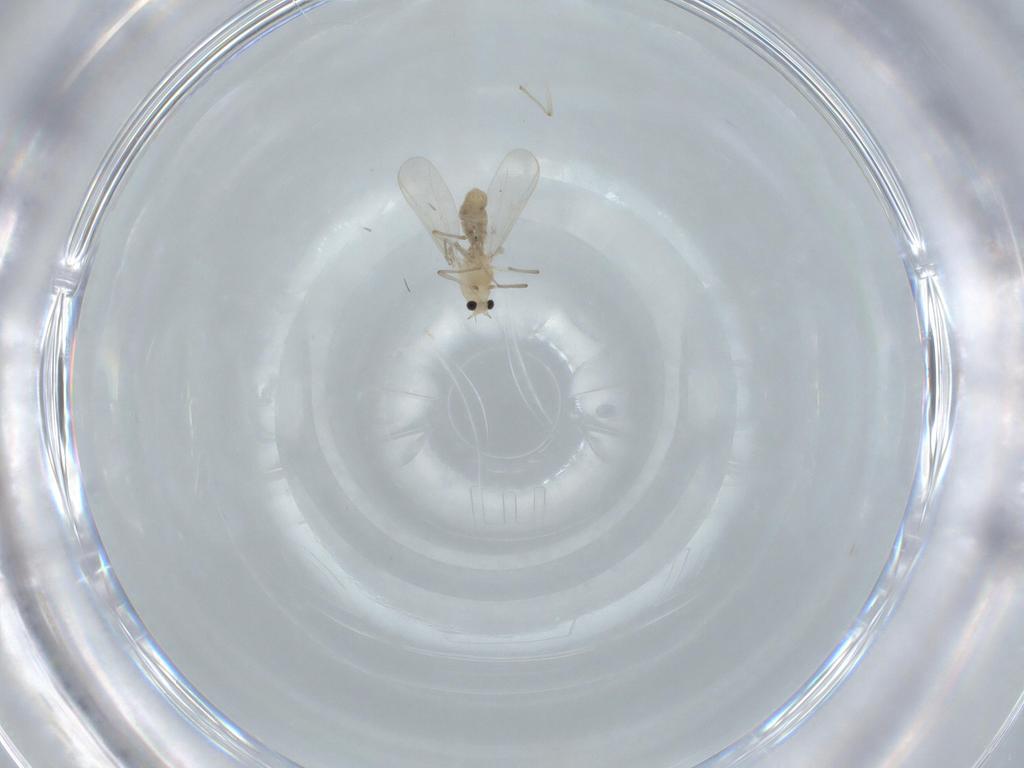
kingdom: Animalia
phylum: Arthropoda
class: Insecta
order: Diptera
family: Chironomidae
